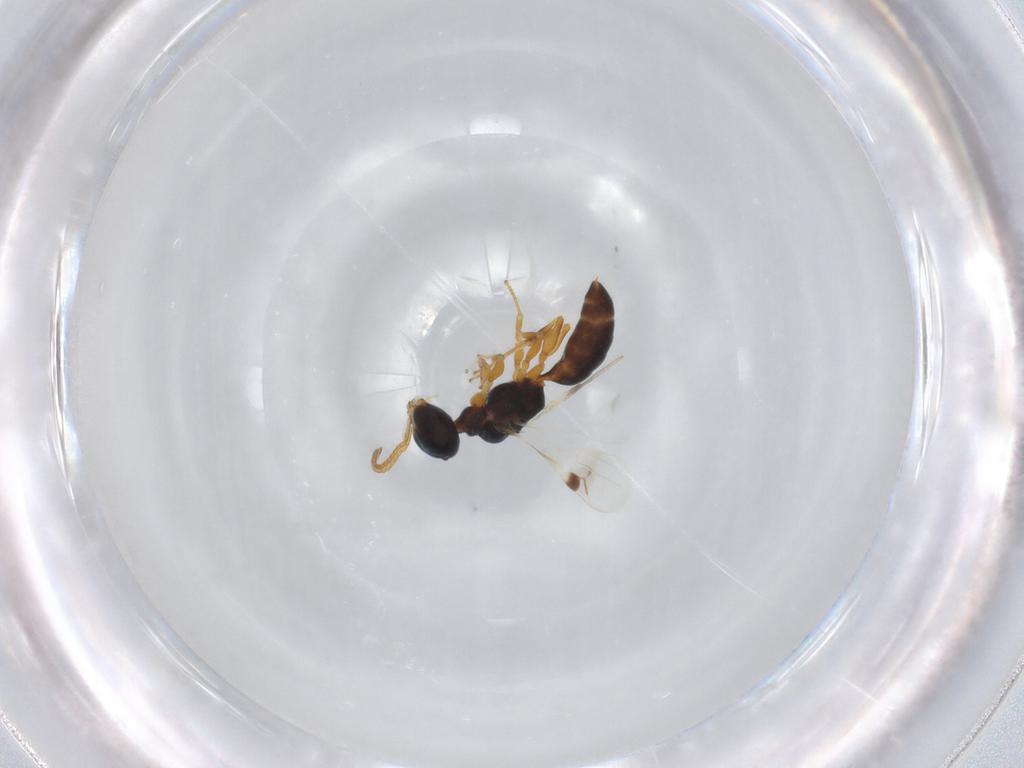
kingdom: Animalia
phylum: Arthropoda
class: Insecta
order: Hymenoptera
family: Pemphredonidae
